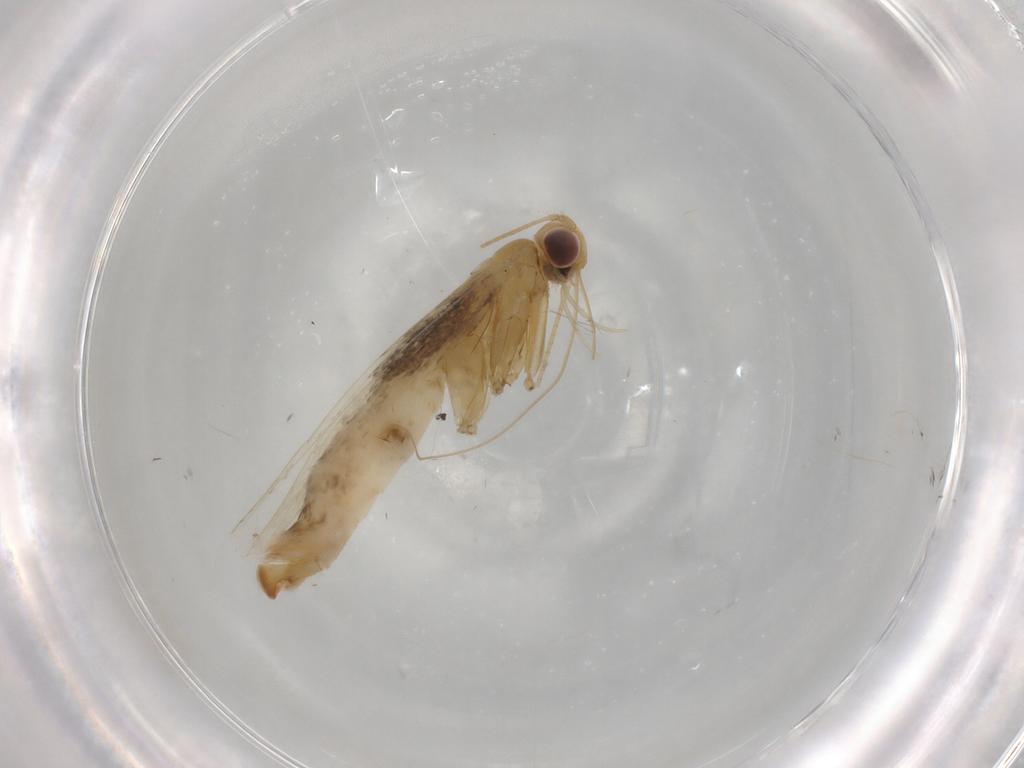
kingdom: Animalia
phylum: Arthropoda
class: Insecta
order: Lepidoptera
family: Gracillariidae
